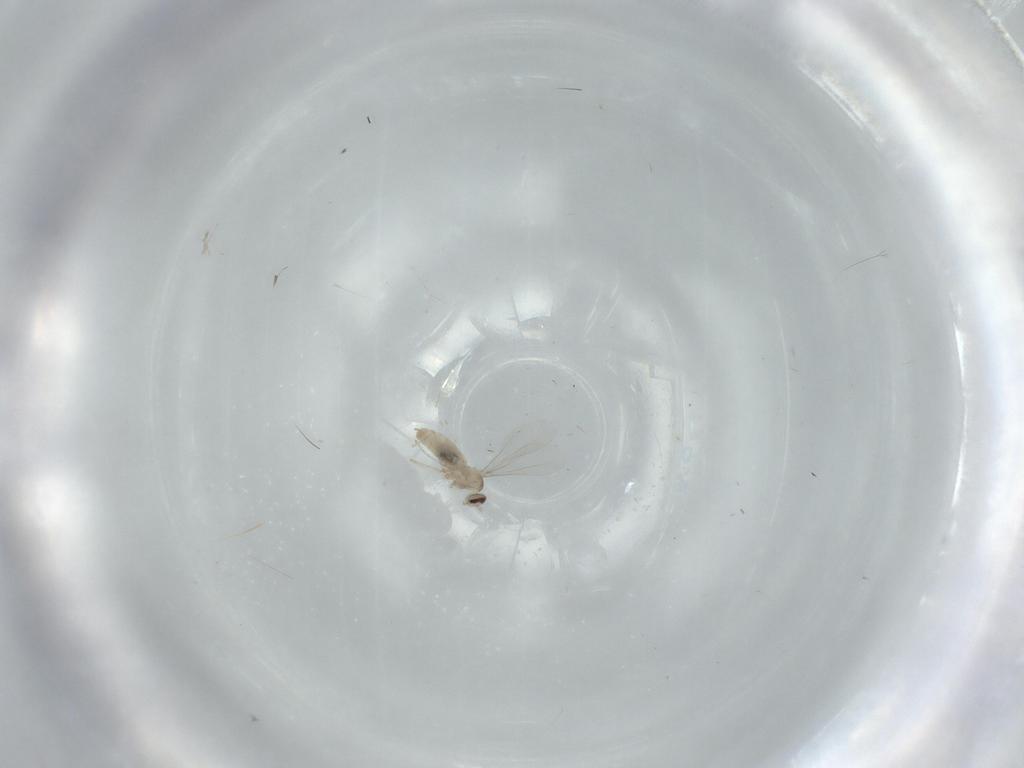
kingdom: Animalia
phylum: Arthropoda
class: Insecta
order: Diptera
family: Cecidomyiidae
